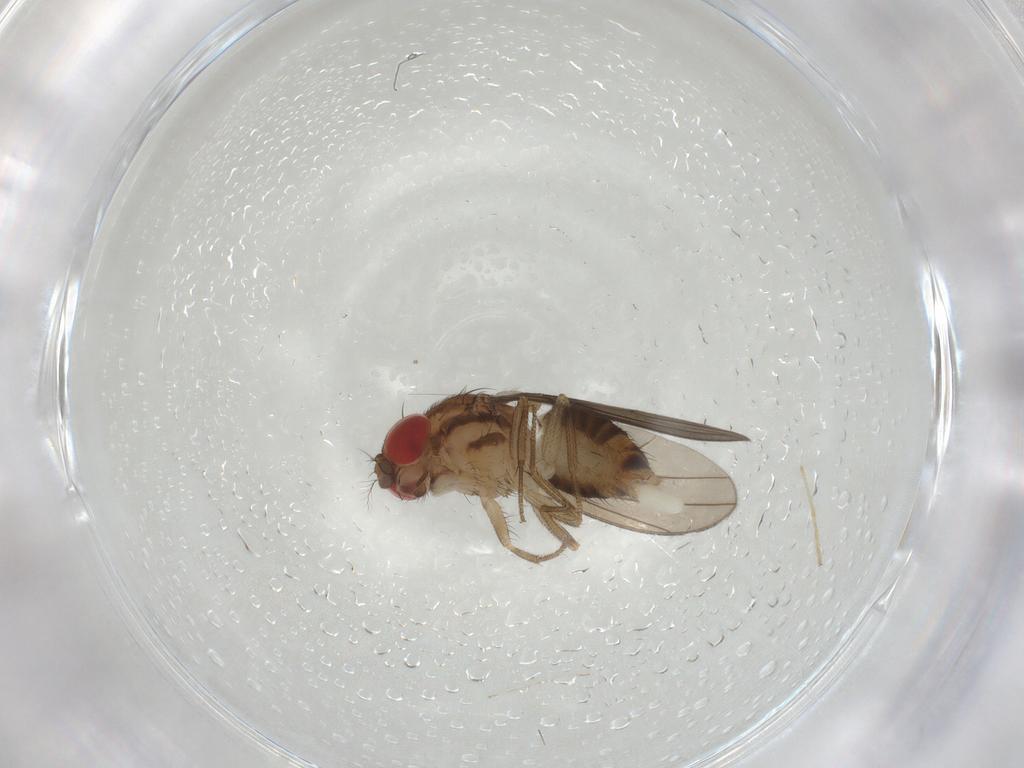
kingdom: Animalia
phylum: Arthropoda
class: Insecta
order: Diptera
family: Drosophilidae
